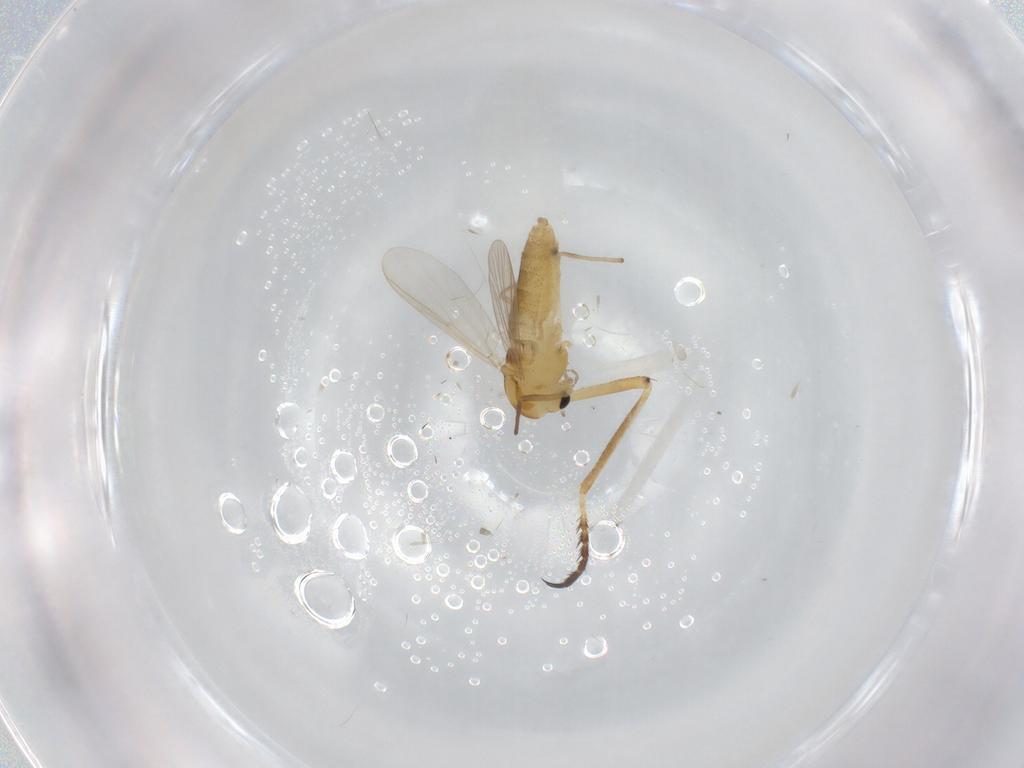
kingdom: Animalia
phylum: Arthropoda
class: Insecta
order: Diptera
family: Chironomidae
